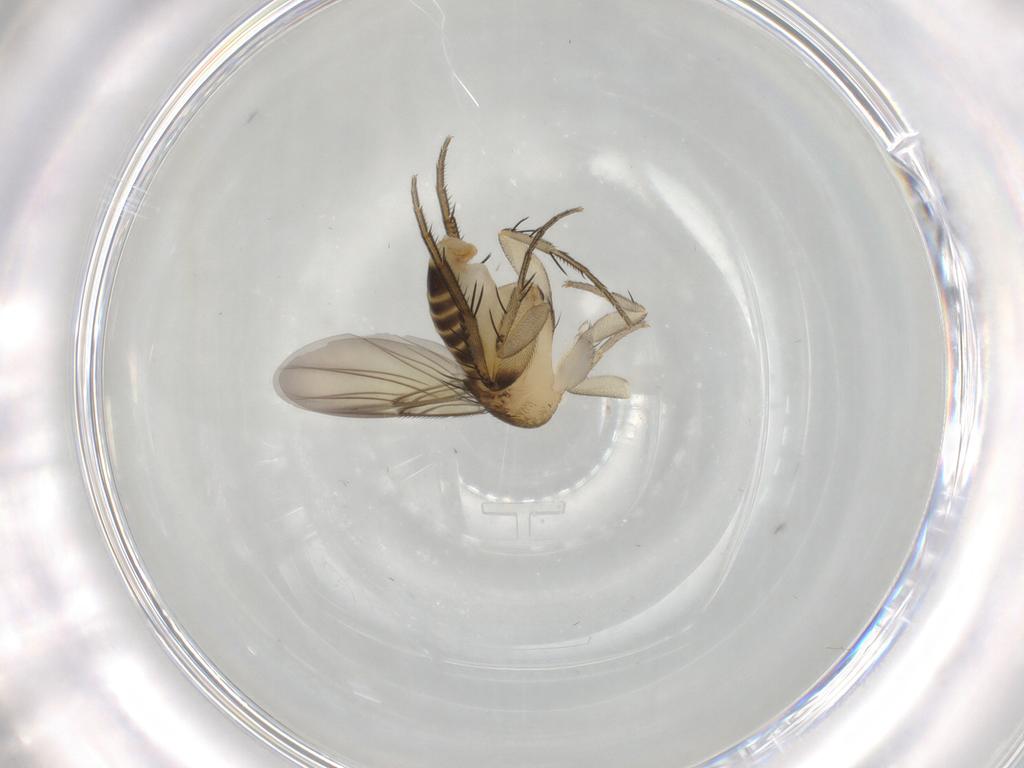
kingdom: Animalia
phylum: Arthropoda
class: Insecta
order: Diptera
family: Phoridae
